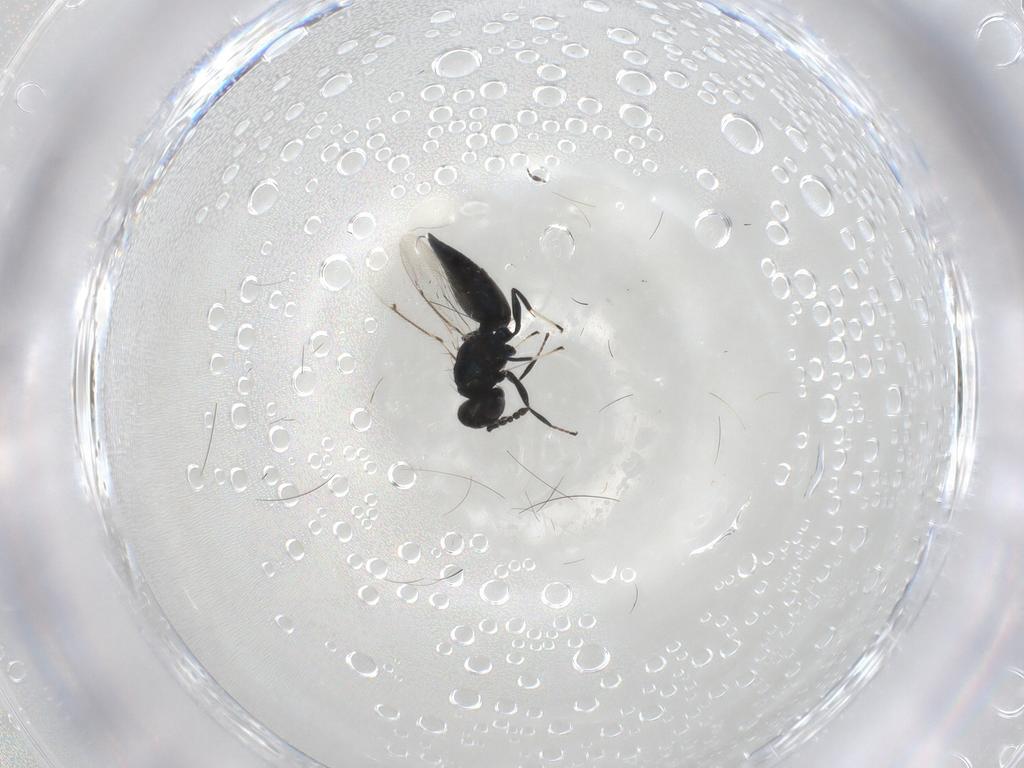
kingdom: Animalia
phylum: Arthropoda
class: Insecta
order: Hymenoptera
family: Eulophidae
